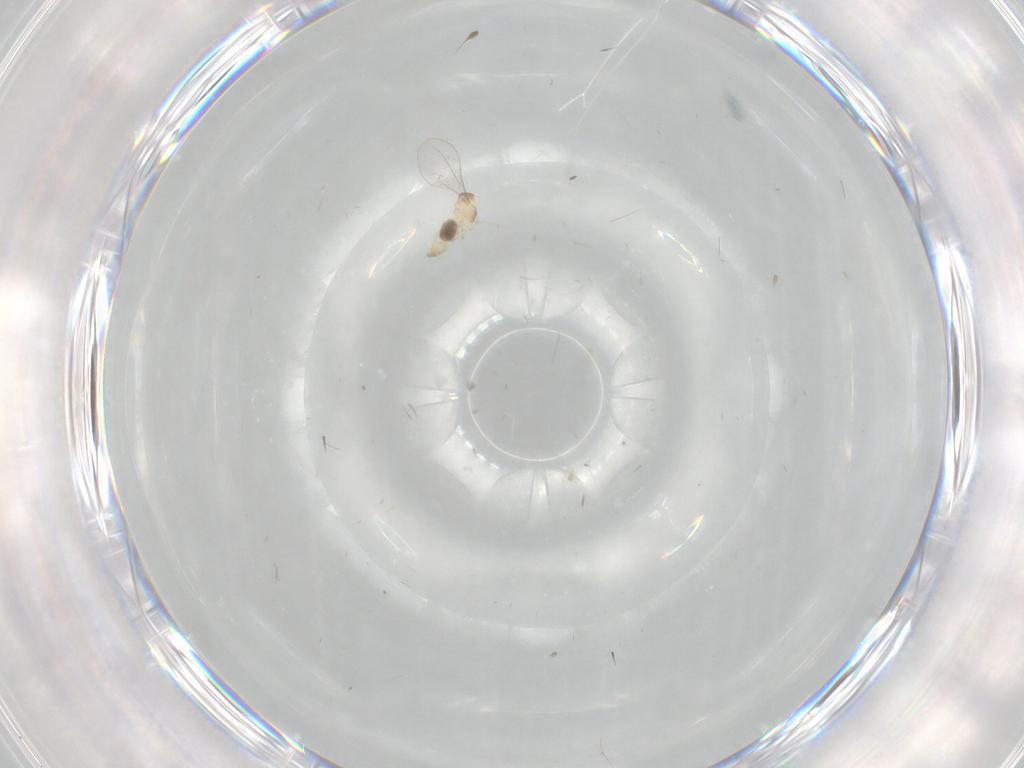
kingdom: Animalia
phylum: Arthropoda
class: Insecta
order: Diptera
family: Cecidomyiidae
